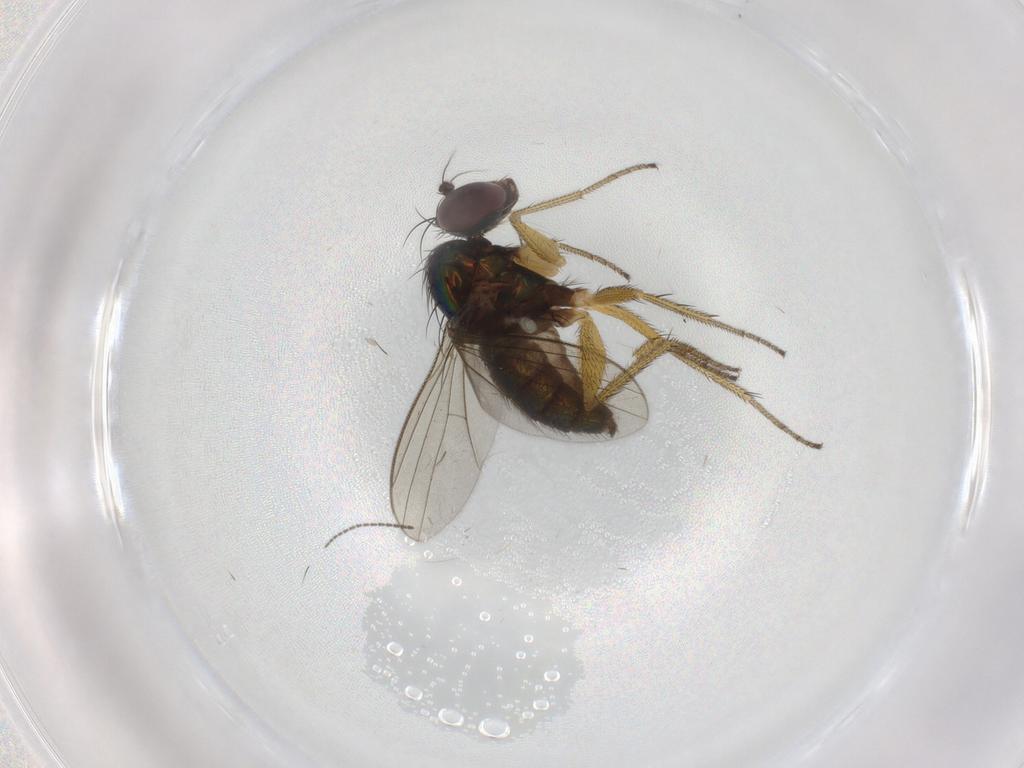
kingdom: Animalia
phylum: Arthropoda
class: Insecta
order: Diptera
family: Sciaridae
